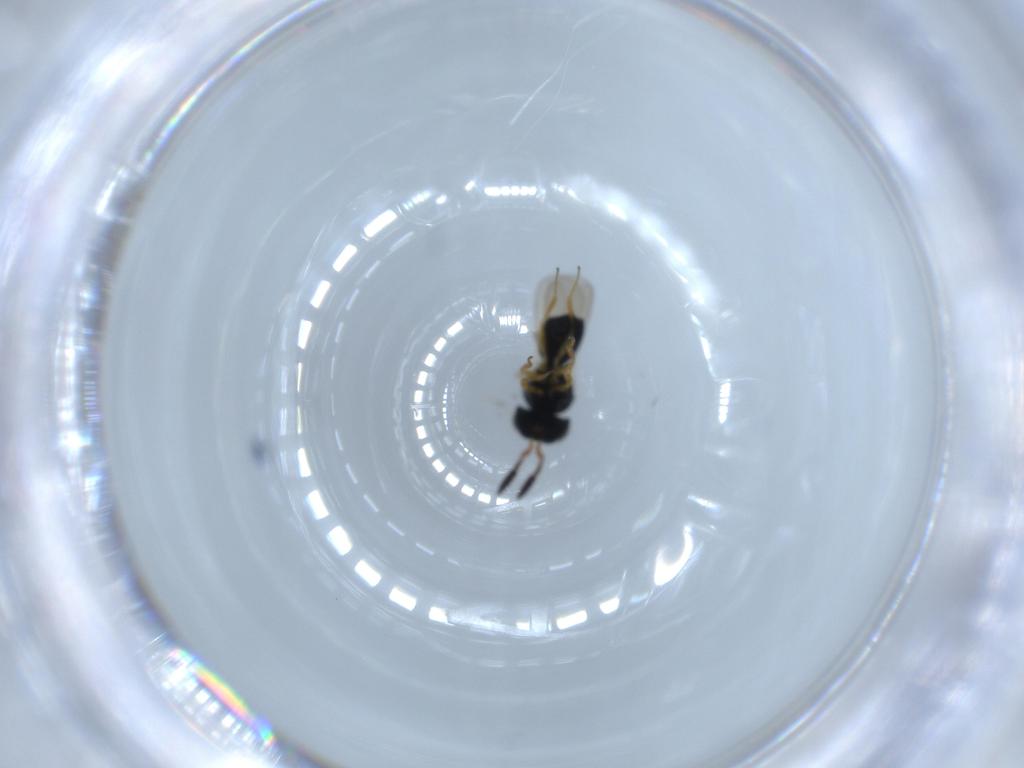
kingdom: Animalia
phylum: Arthropoda
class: Insecta
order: Hymenoptera
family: Scelionidae
